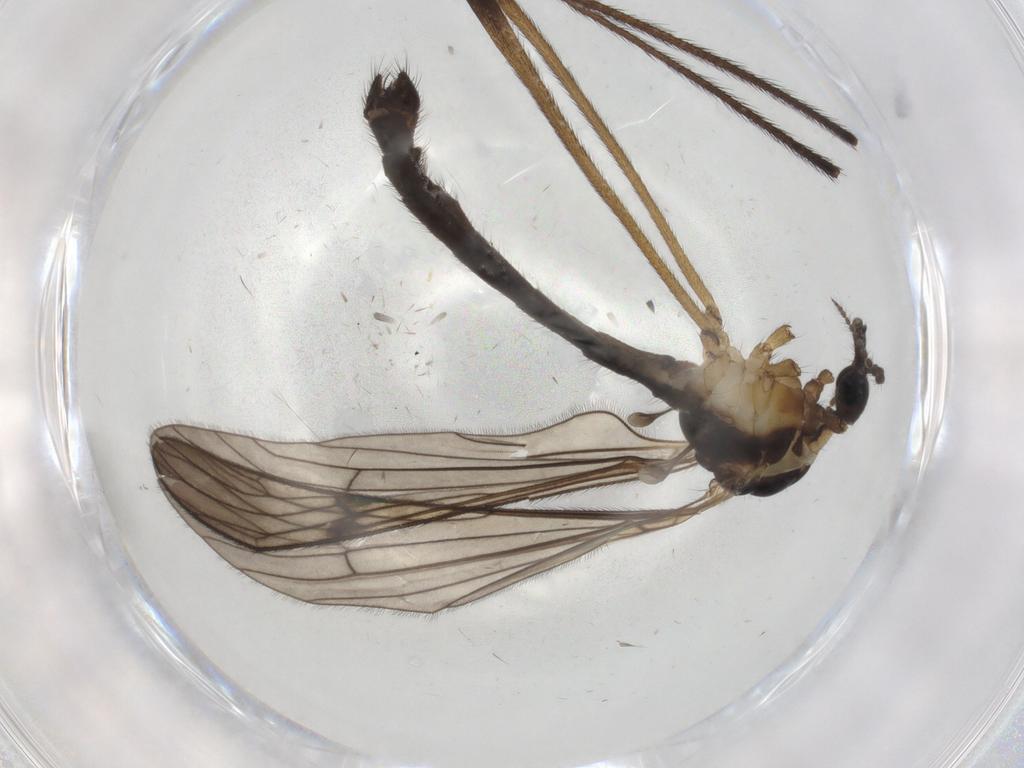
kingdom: Animalia
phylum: Arthropoda
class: Insecta
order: Diptera
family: Limoniidae
